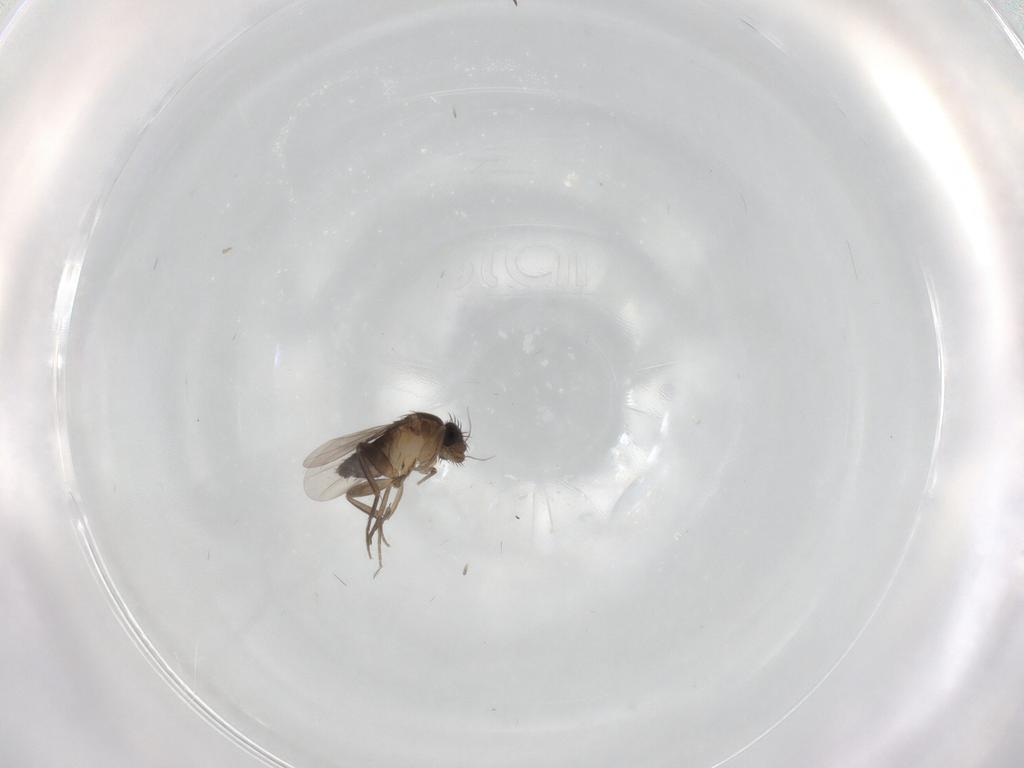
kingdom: Animalia
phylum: Arthropoda
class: Insecta
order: Diptera
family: Phoridae
